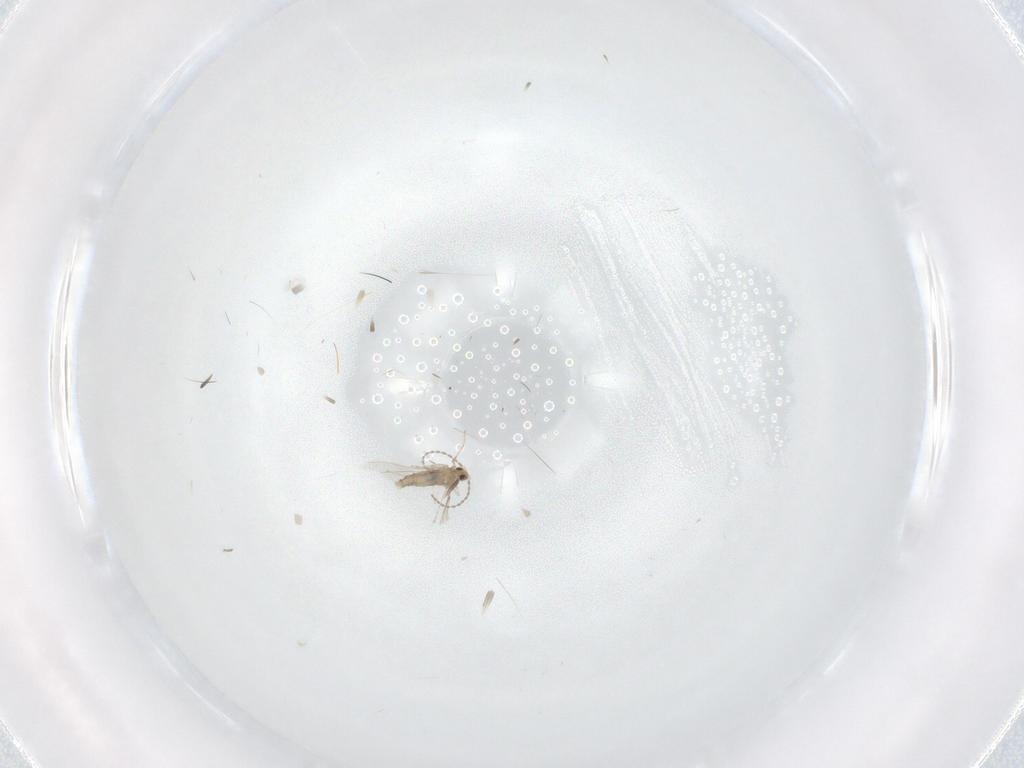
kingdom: Animalia
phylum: Arthropoda
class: Insecta
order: Diptera
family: Cecidomyiidae
